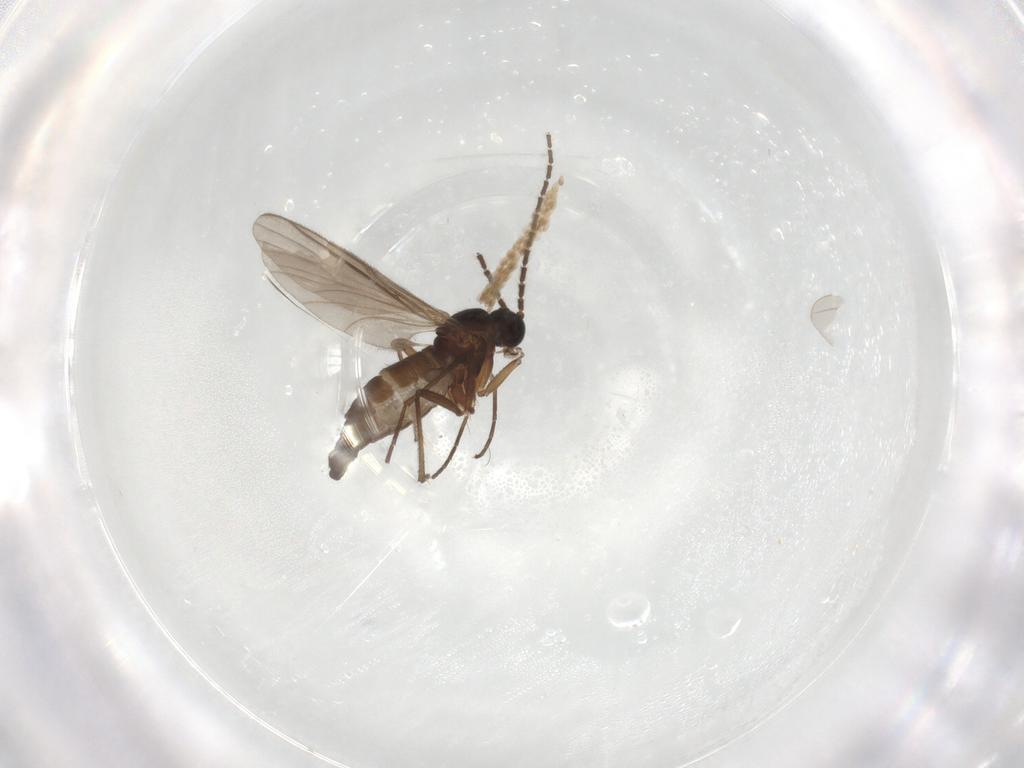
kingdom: Animalia
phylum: Arthropoda
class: Insecta
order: Diptera
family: Sciaridae
